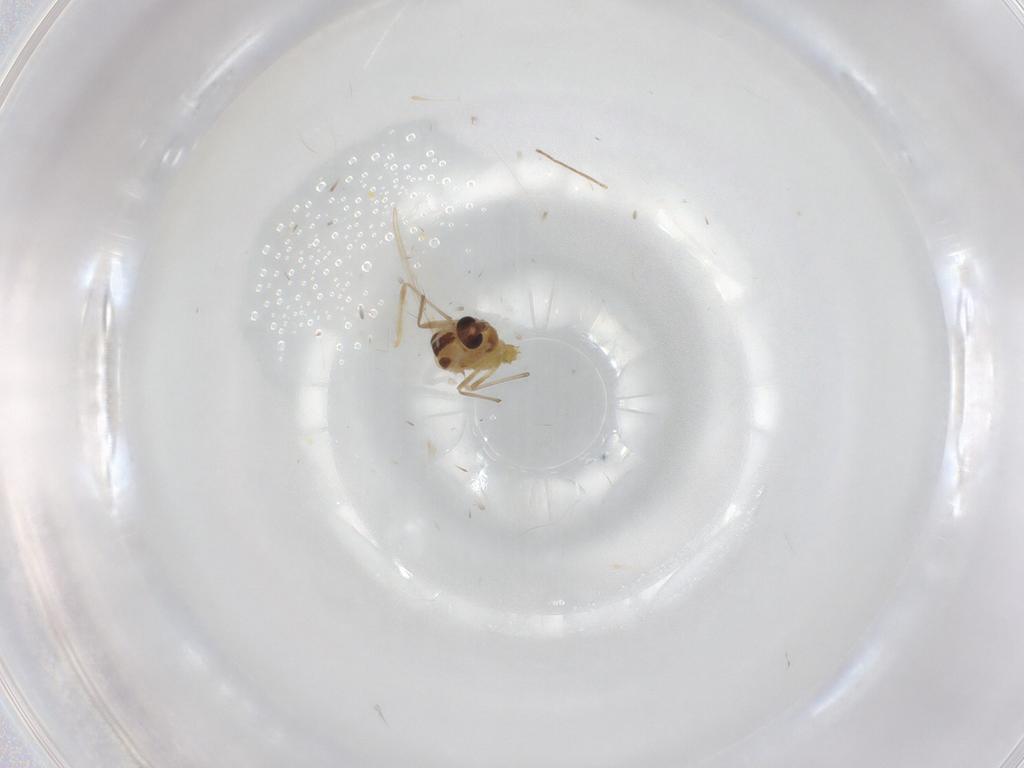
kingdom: Animalia
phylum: Arthropoda
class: Insecta
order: Diptera
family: Chironomidae
